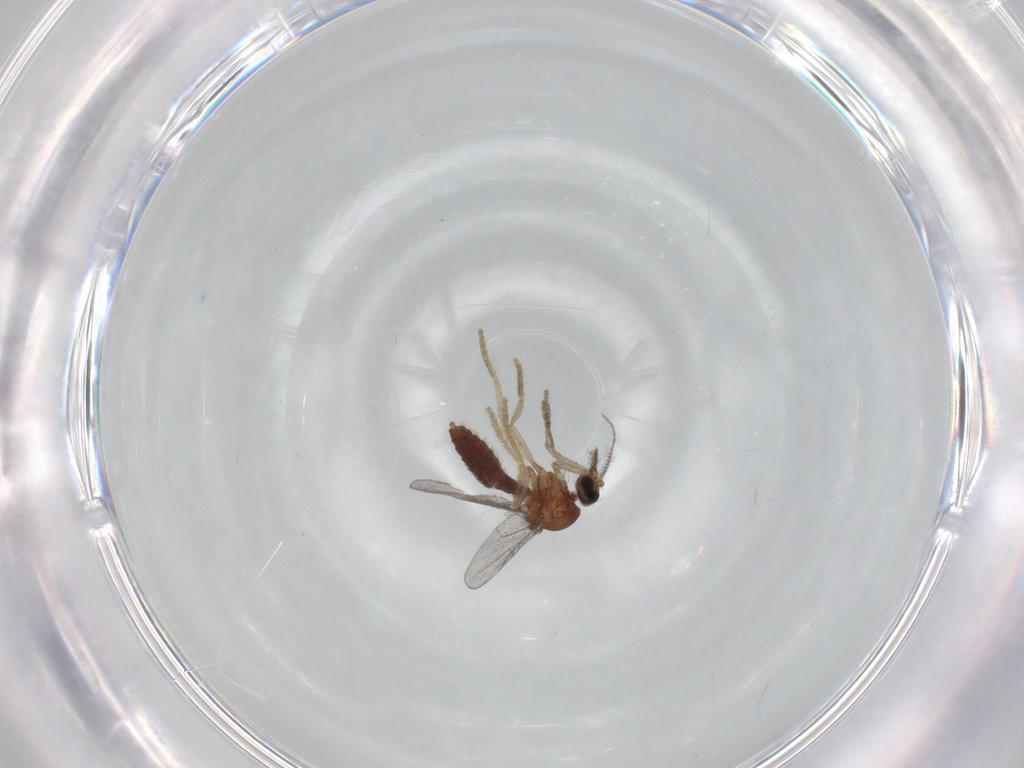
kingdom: Animalia
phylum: Arthropoda
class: Insecta
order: Diptera
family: Ceratopogonidae
